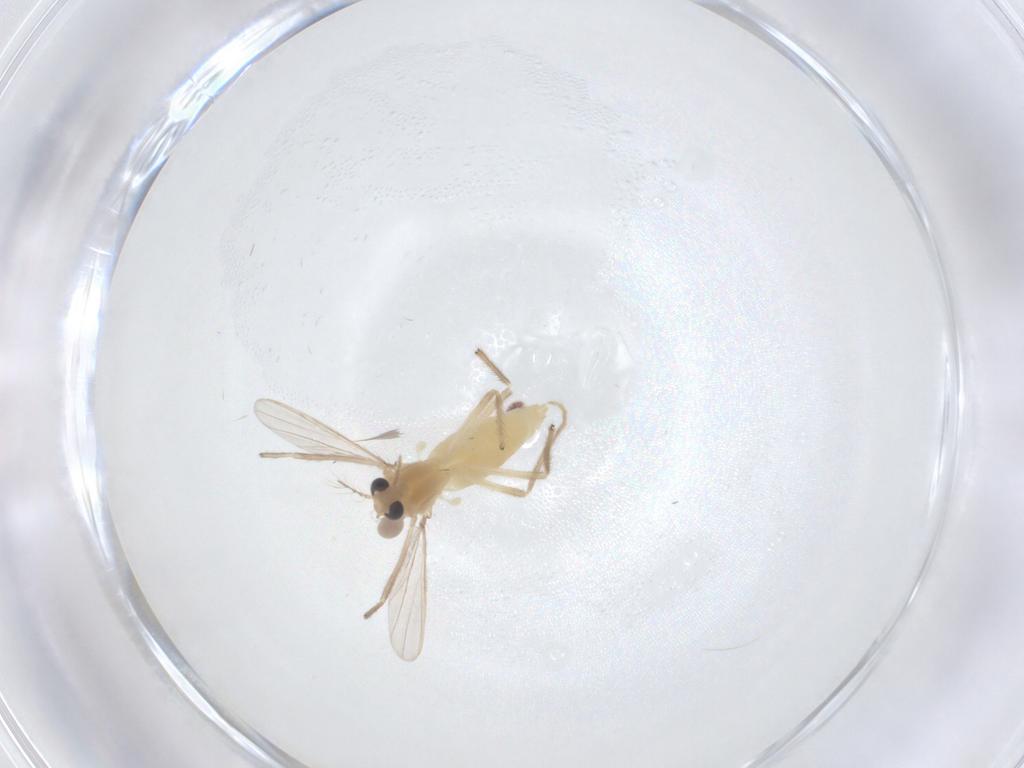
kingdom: Animalia
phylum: Arthropoda
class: Insecta
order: Diptera
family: Chironomidae
